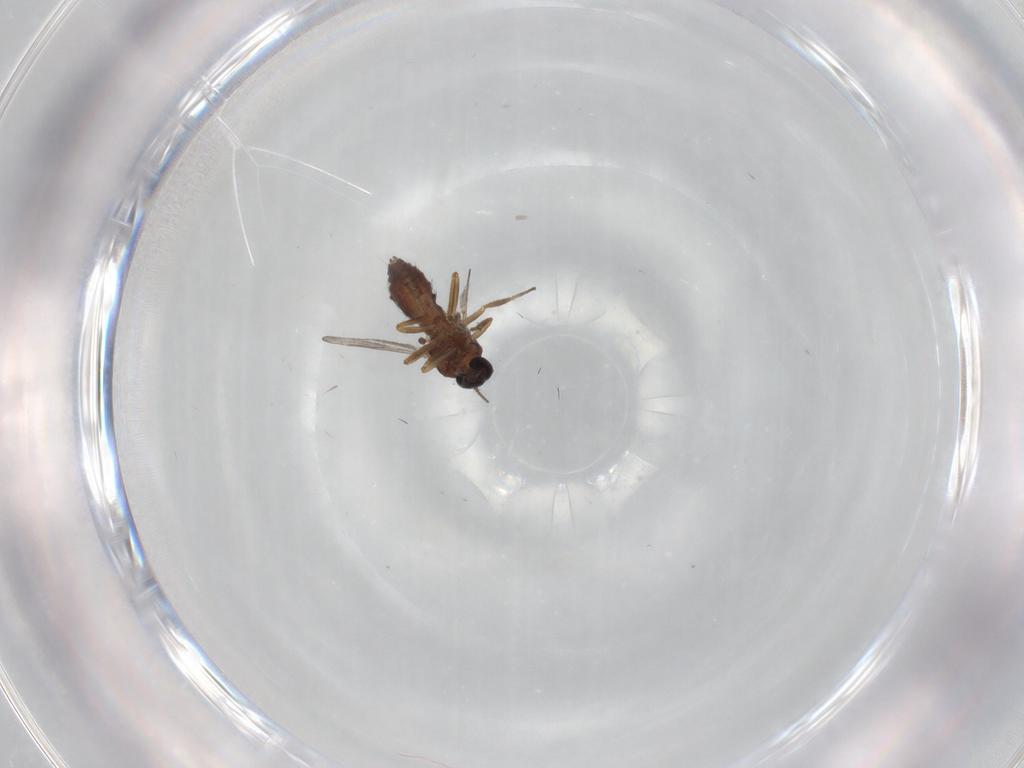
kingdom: Animalia
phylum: Arthropoda
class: Insecta
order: Diptera
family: Ceratopogonidae
